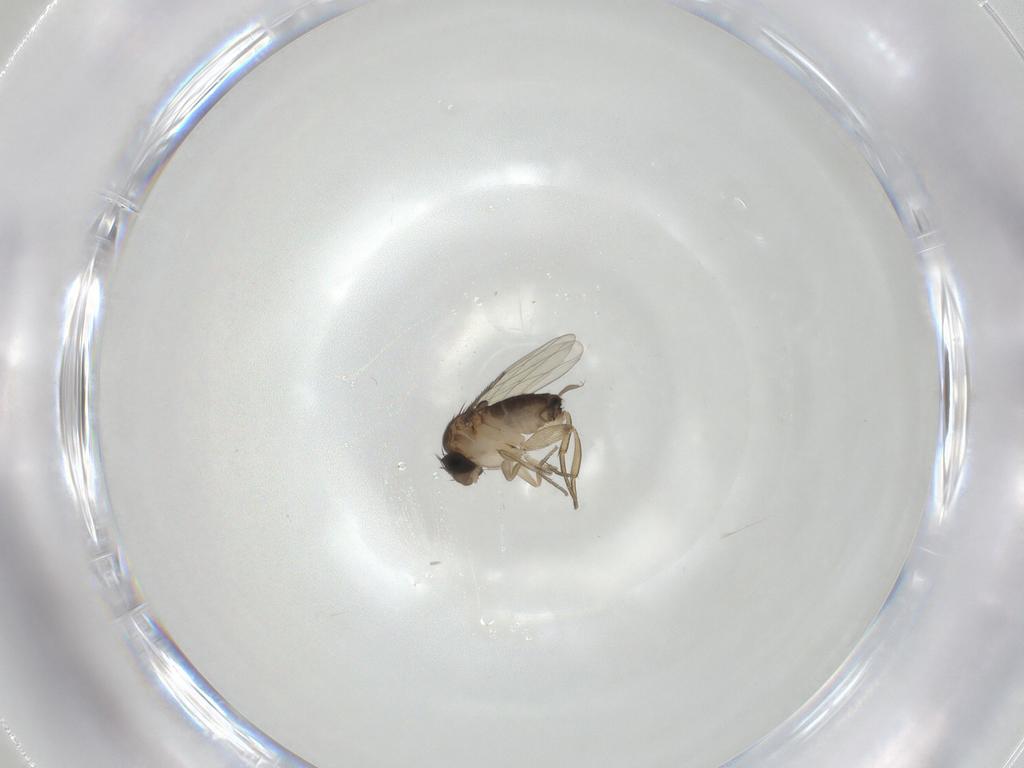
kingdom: Animalia
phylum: Arthropoda
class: Insecta
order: Diptera
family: Phoridae
